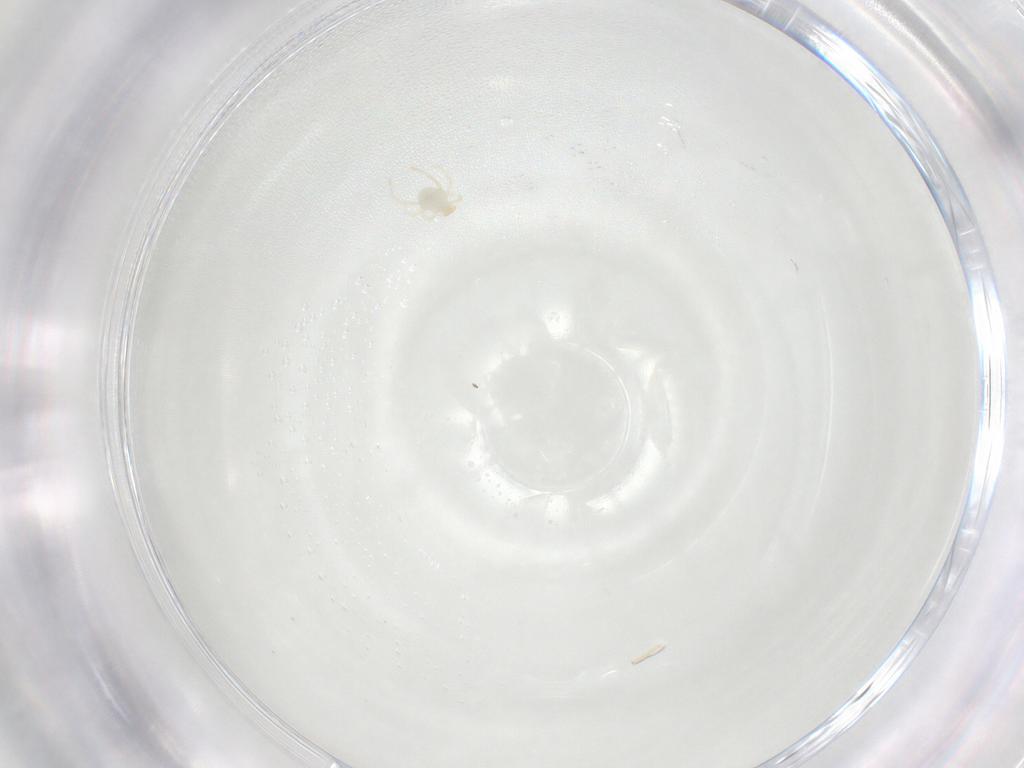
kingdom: Animalia
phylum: Arthropoda
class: Arachnida
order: Trombidiformes
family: Erythraeidae
